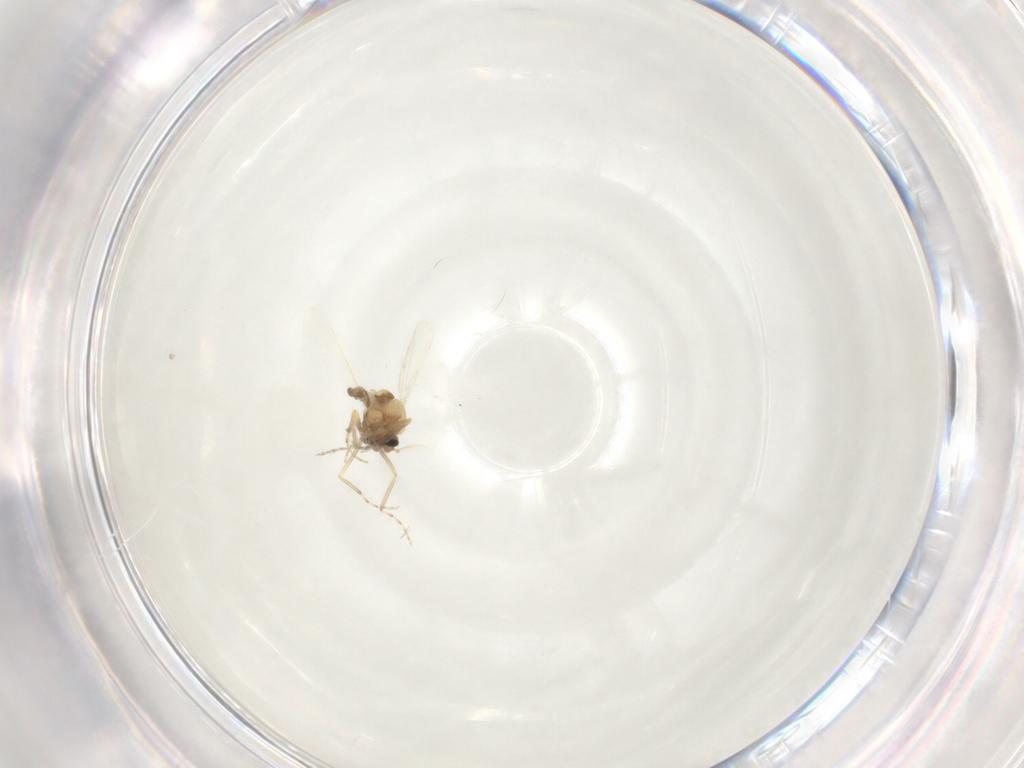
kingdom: Animalia
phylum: Arthropoda
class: Insecta
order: Diptera
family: Ceratopogonidae
